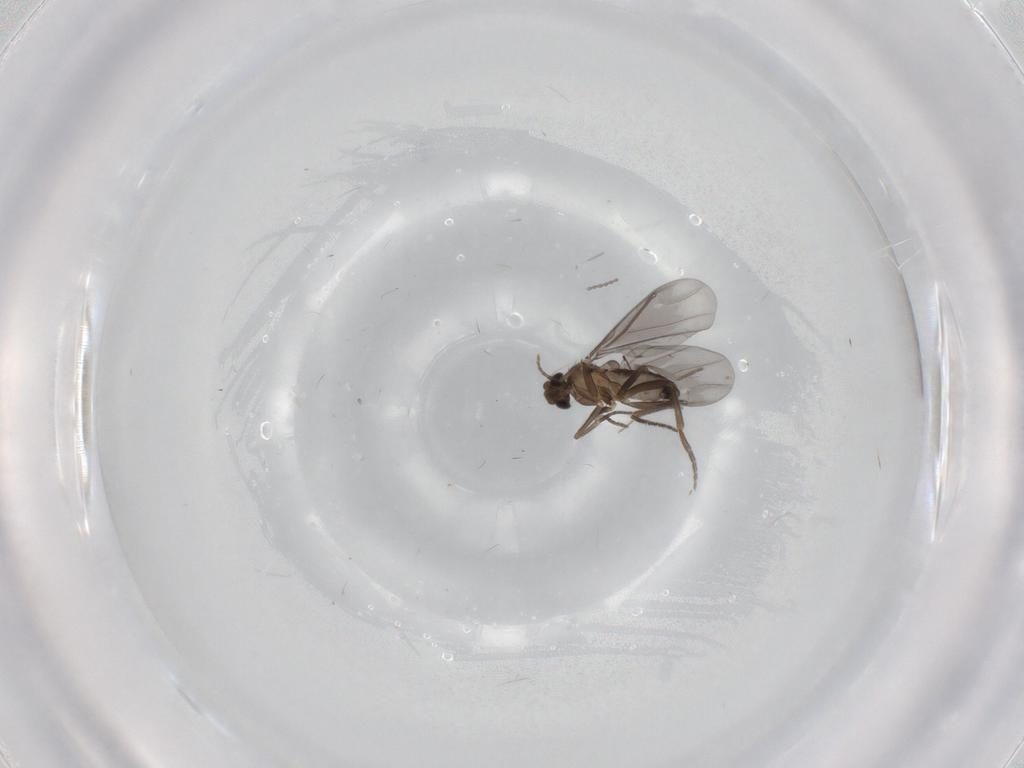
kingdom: Animalia
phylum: Arthropoda
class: Insecta
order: Diptera
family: Cecidomyiidae
